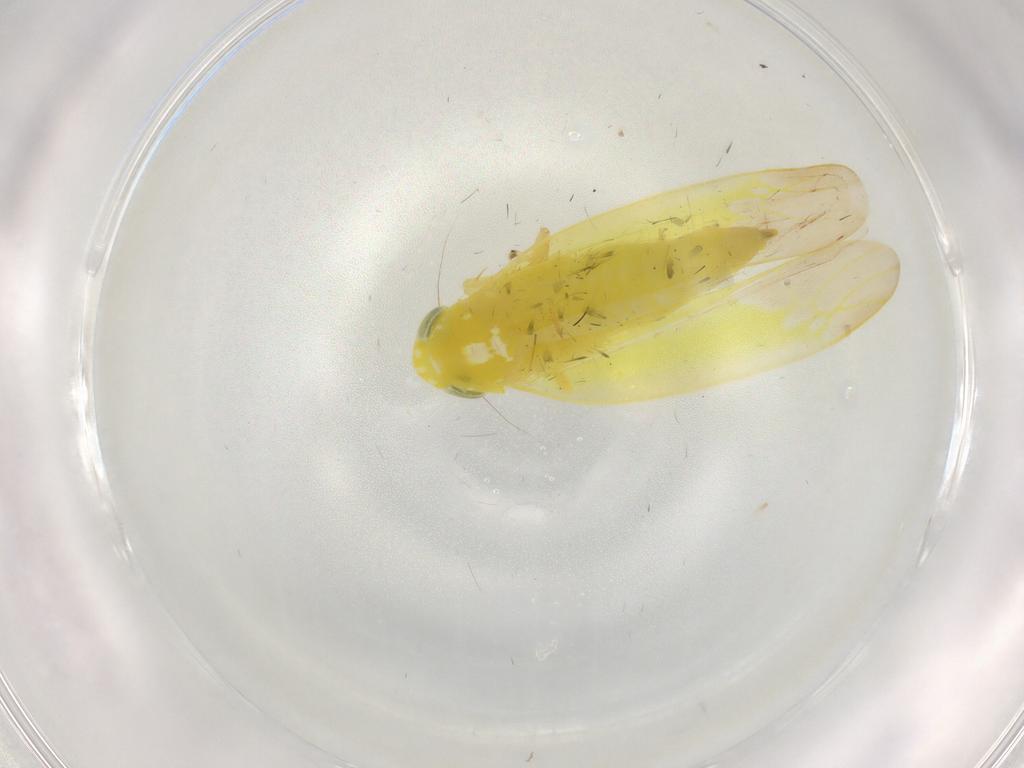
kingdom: Animalia
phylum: Arthropoda
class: Insecta
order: Hemiptera
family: Cicadellidae
